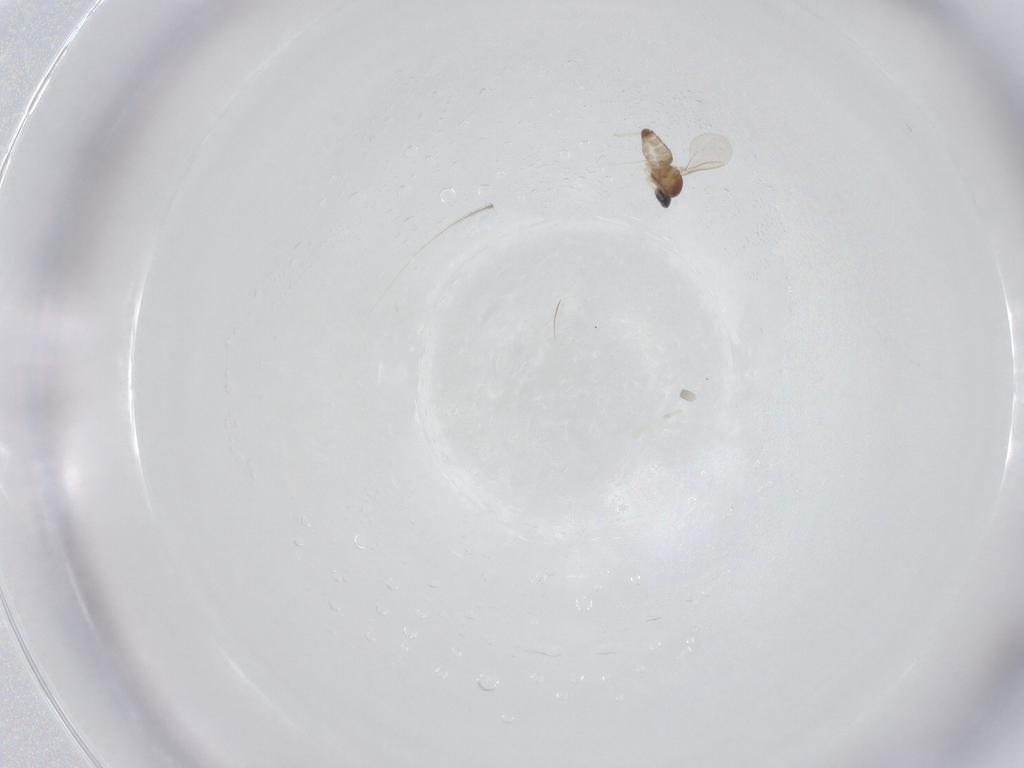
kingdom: Animalia
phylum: Arthropoda
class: Insecta
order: Diptera
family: Cecidomyiidae
